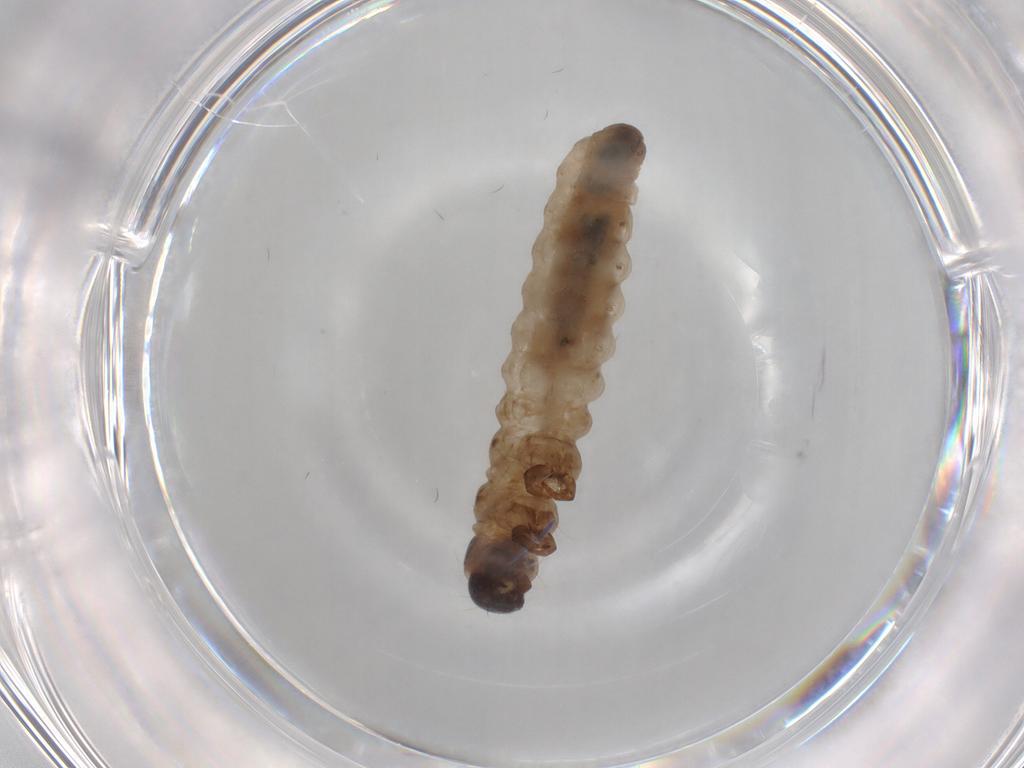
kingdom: Animalia
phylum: Arthropoda
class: Insecta
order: Lepidoptera
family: Psychidae
